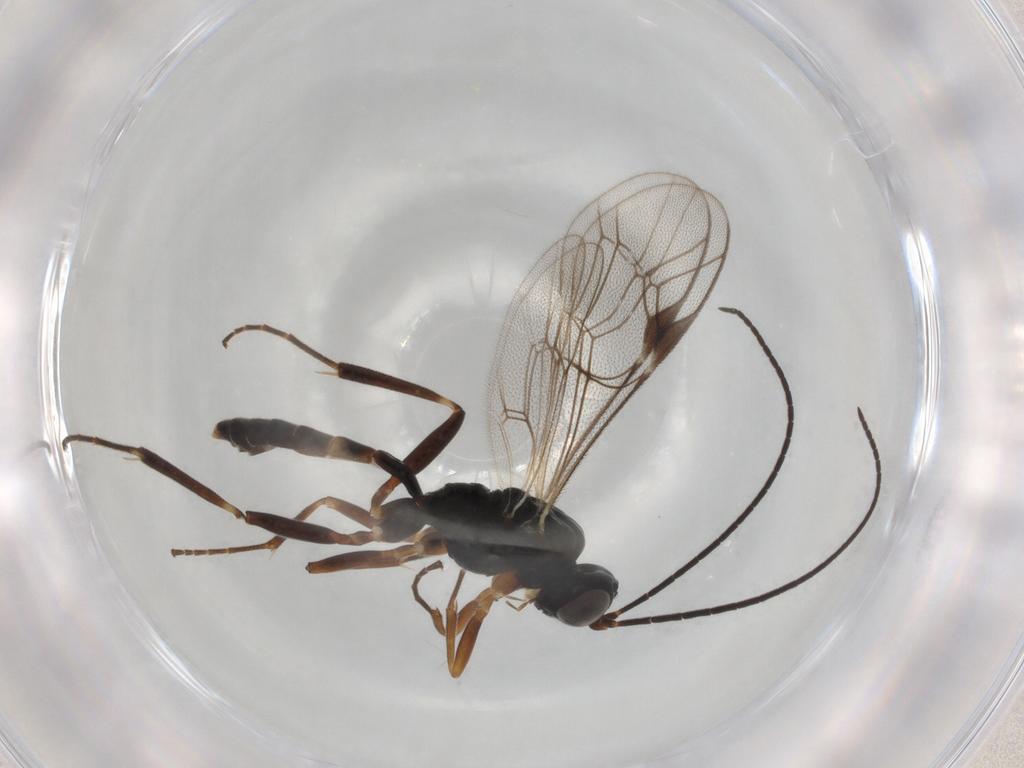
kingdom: Animalia
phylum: Arthropoda
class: Insecta
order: Hymenoptera
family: Ichneumonidae
